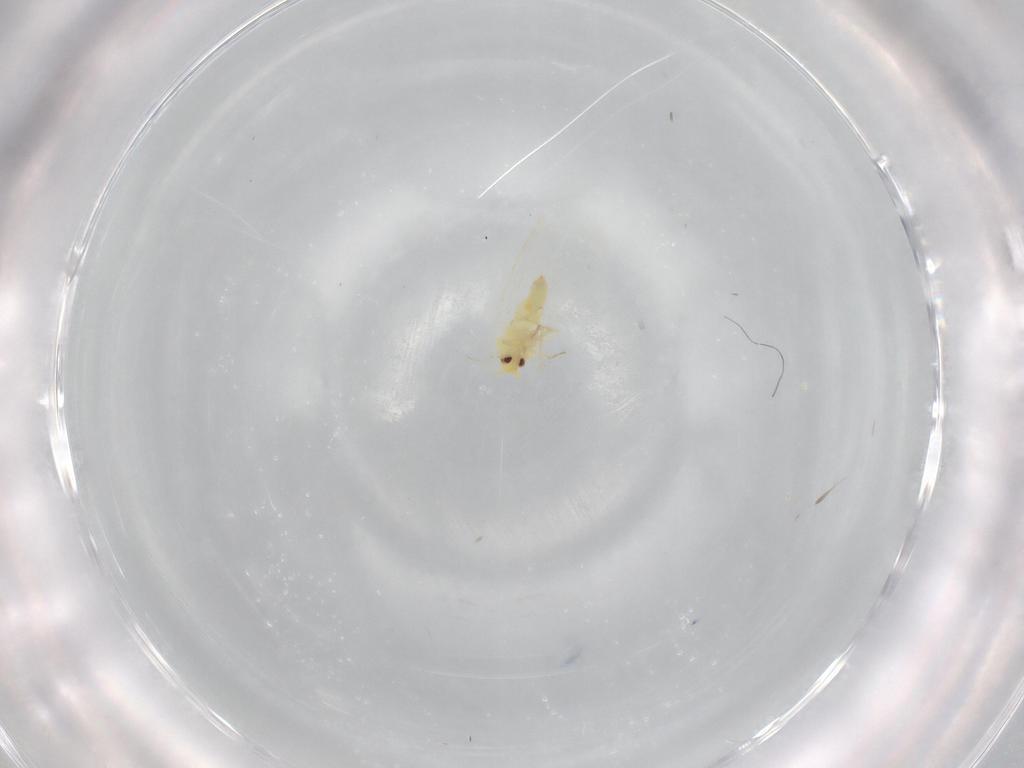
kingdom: Animalia
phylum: Arthropoda
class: Insecta
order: Hemiptera
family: Aleyrodidae
